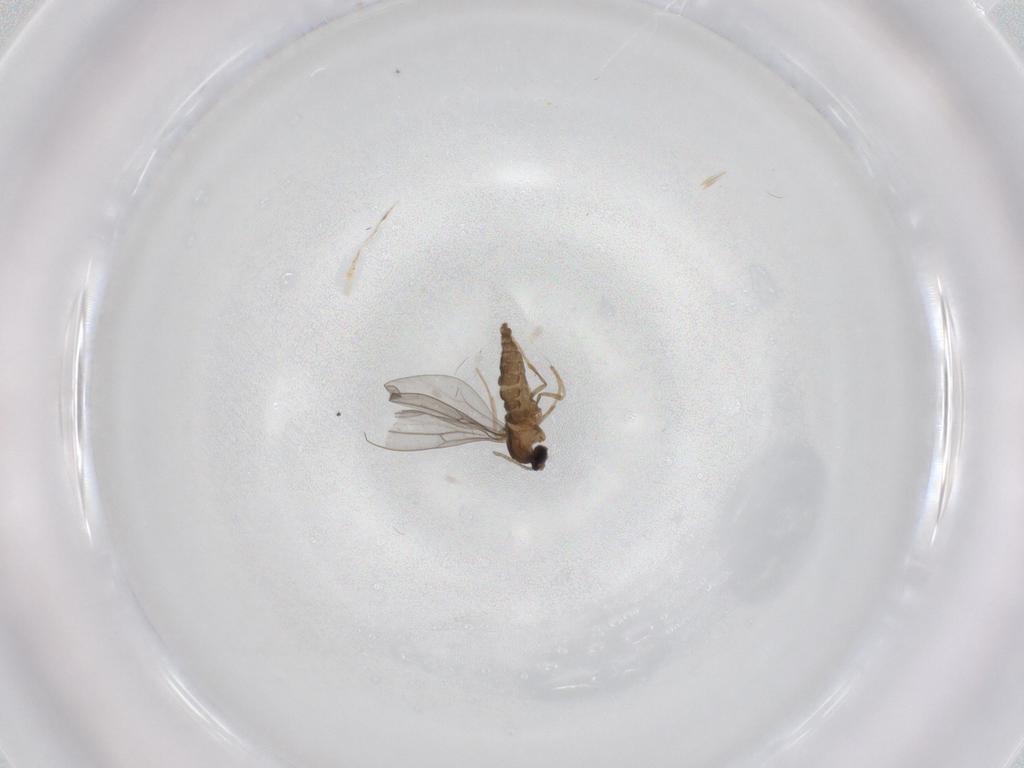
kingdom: Animalia
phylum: Arthropoda
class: Insecta
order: Diptera
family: Cecidomyiidae
